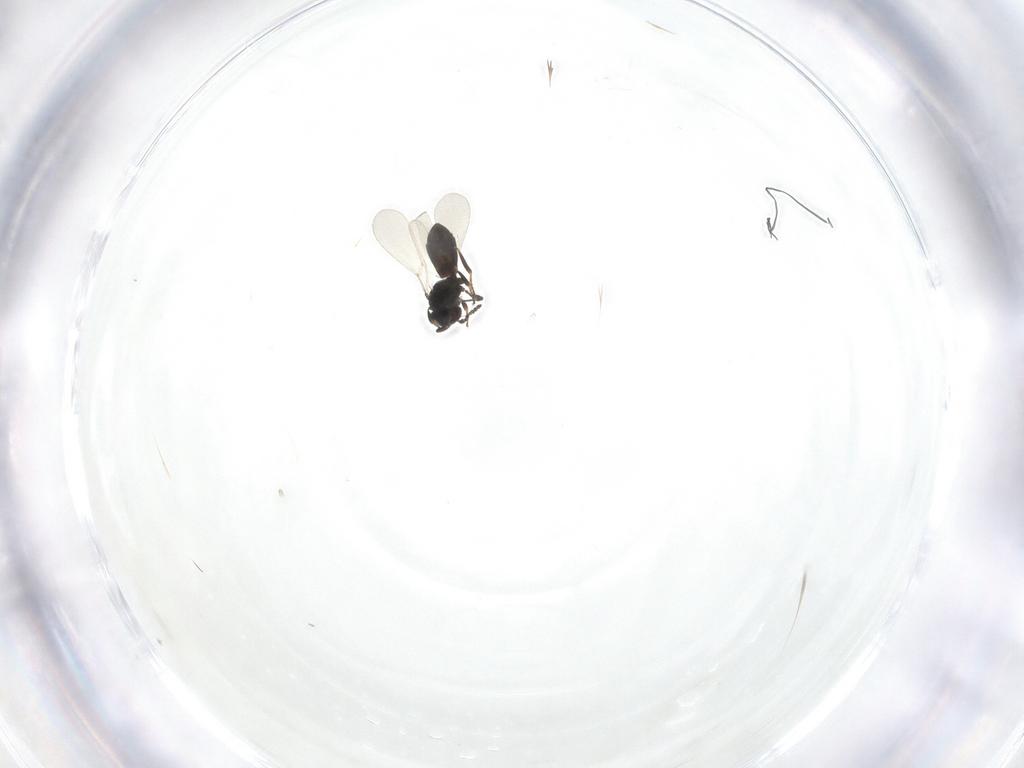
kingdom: Animalia
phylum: Arthropoda
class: Insecta
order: Hymenoptera
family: Platygastridae
